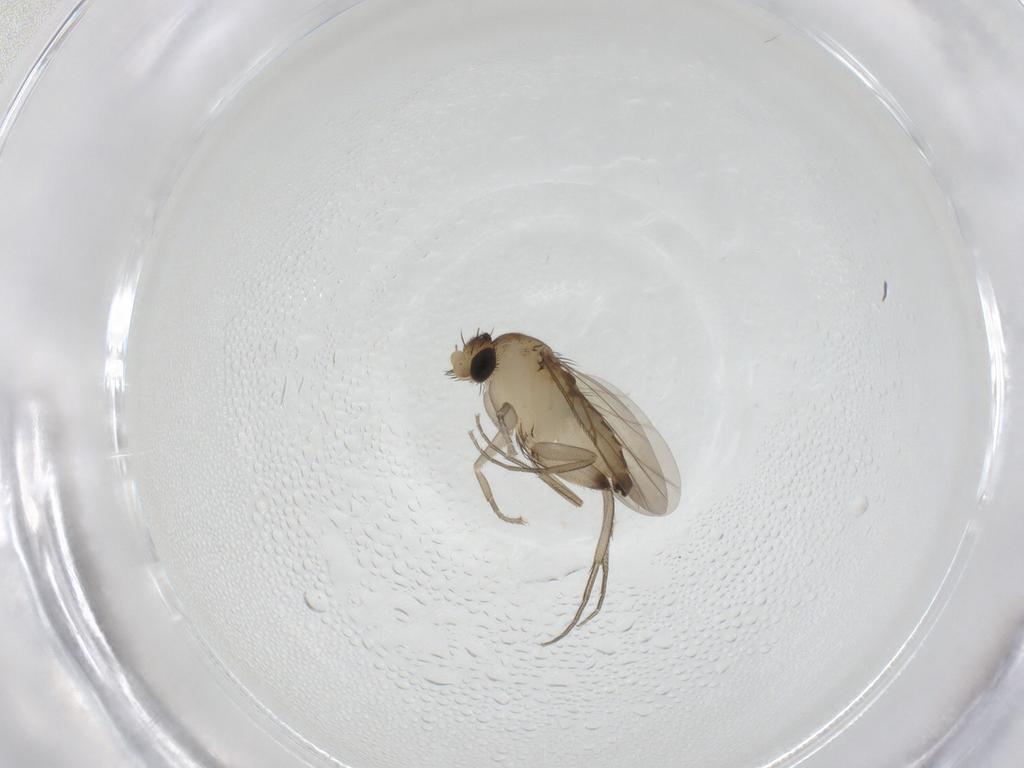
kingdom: Animalia
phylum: Arthropoda
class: Insecta
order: Diptera
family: Phoridae
